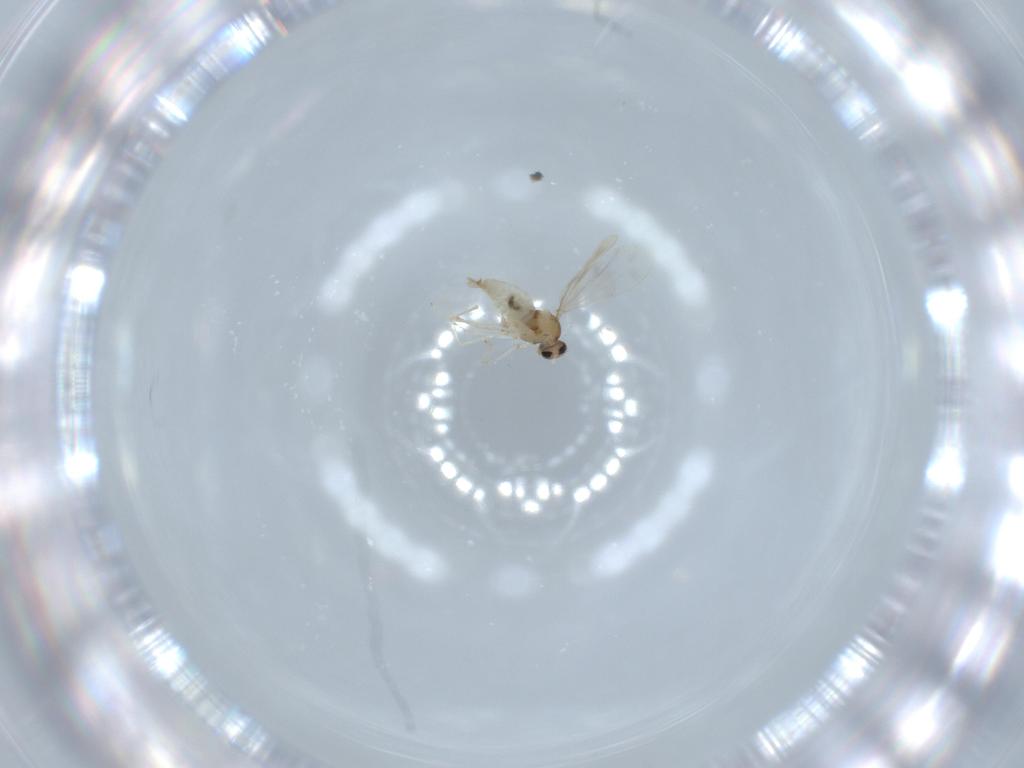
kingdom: Animalia
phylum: Arthropoda
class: Insecta
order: Diptera
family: Cecidomyiidae
